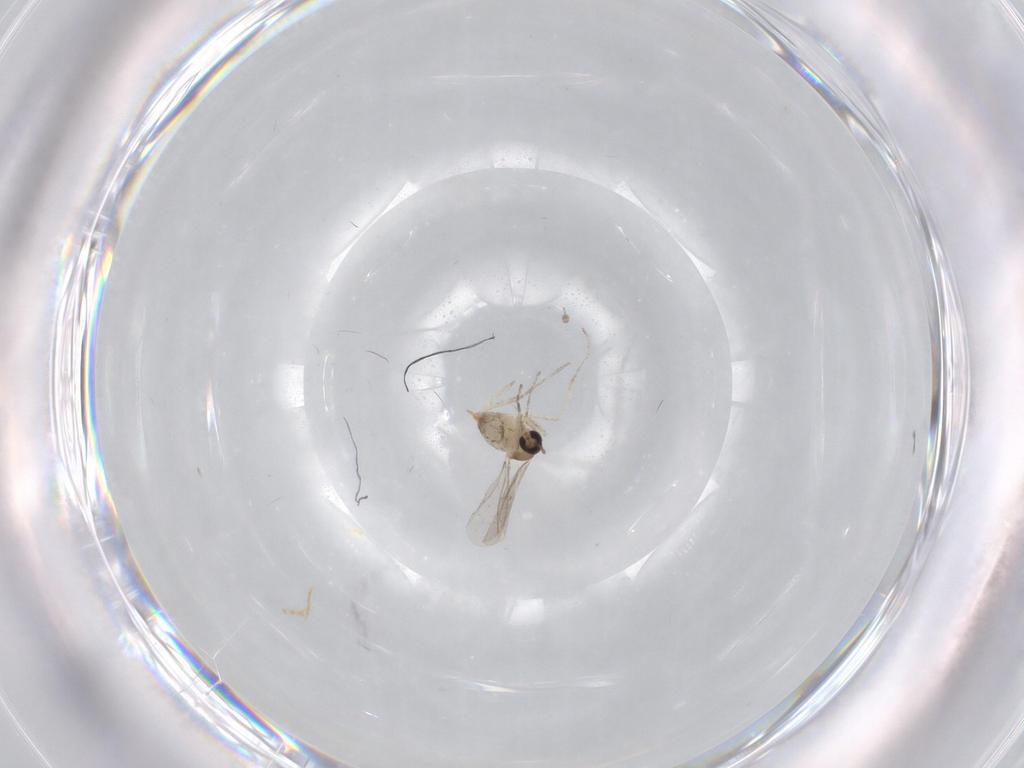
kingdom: Animalia
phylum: Arthropoda
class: Insecta
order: Diptera
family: Cecidomyiidae
